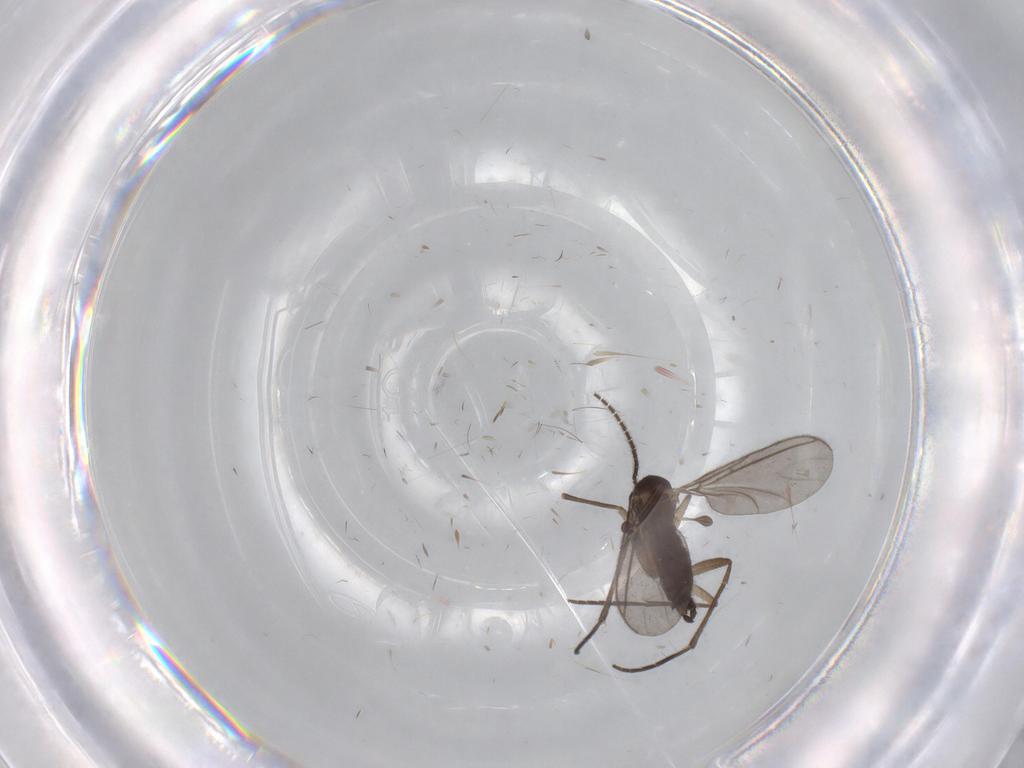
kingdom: Animalia
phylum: Arthropoda
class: Insecta
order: Diptera
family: Sciaridae
